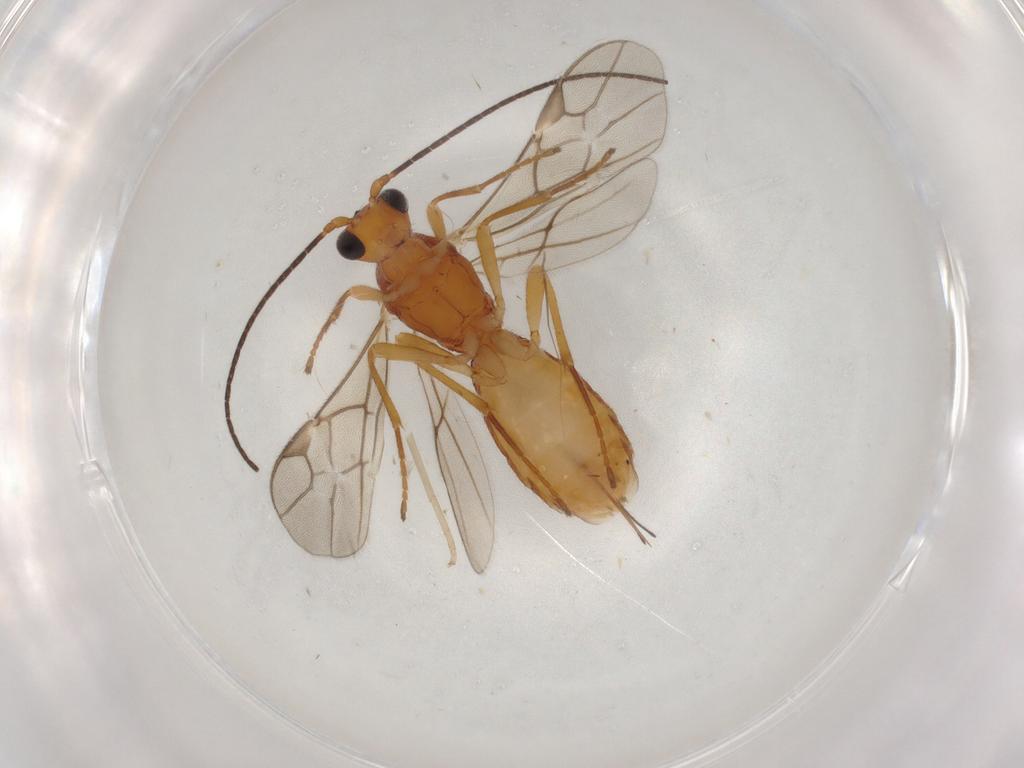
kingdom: Animalia
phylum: Arthropoda
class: Insecta
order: Hymenoptera
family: Braconidae
